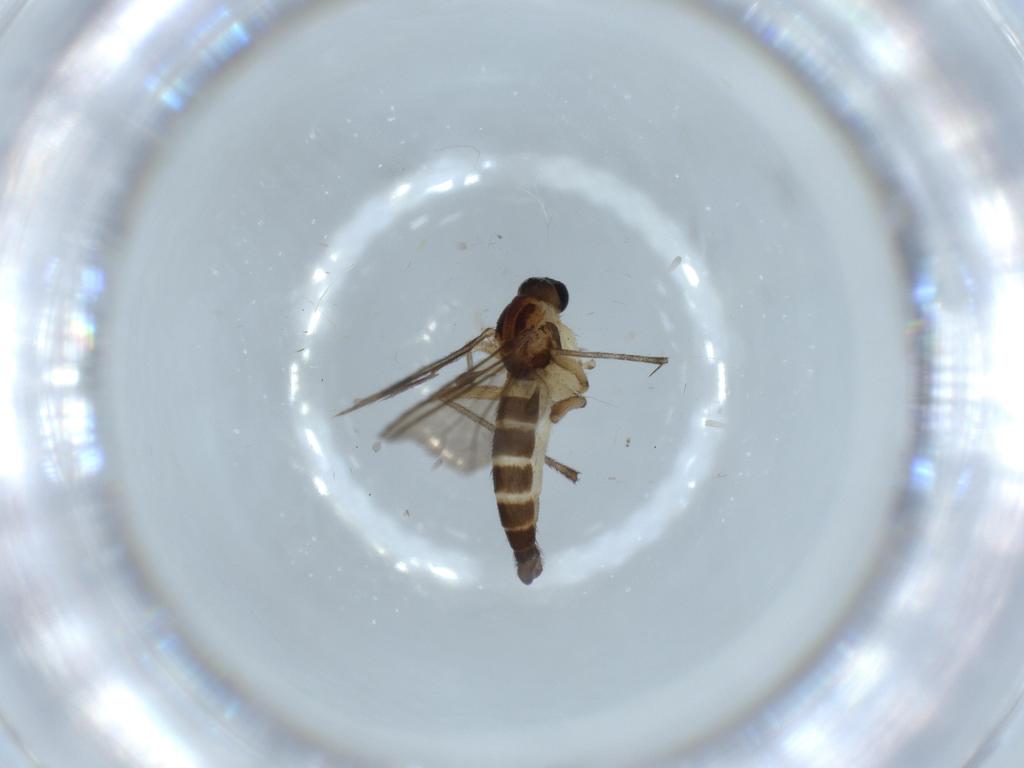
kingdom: Animalia
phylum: Arthropoda
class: Insecta
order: Diptera
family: Sciaridae
